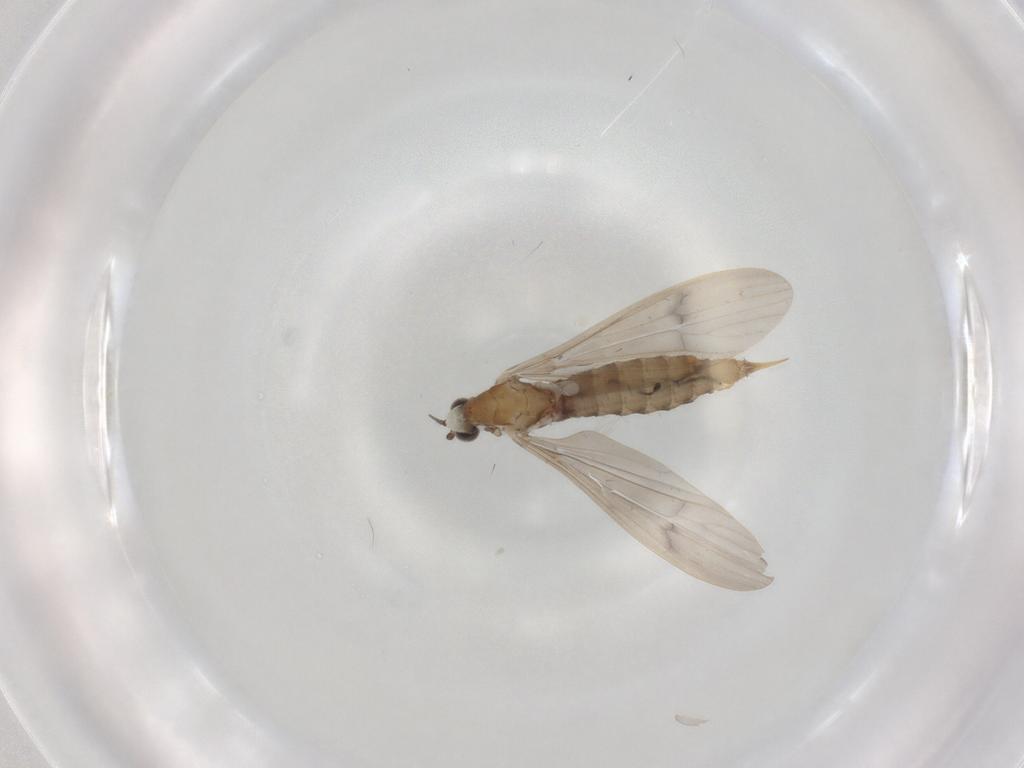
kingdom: Animalia
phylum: Arthropoda
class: Insecta
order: Diptera
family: Limoniidae
